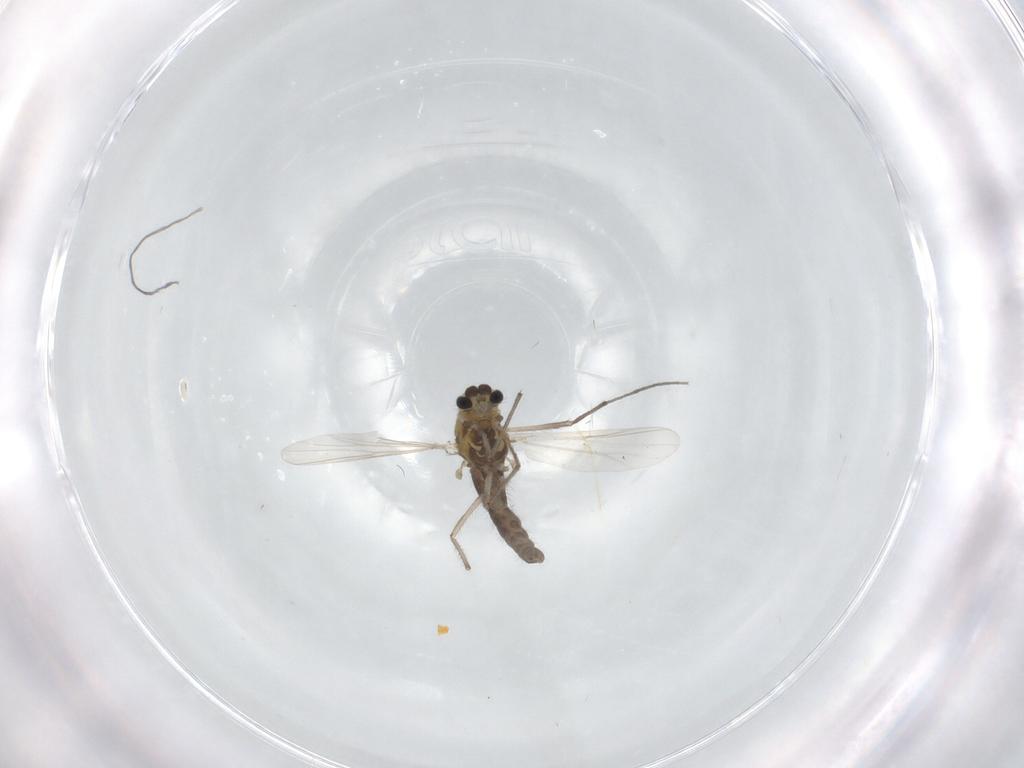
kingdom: Animalia
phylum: Arthropoda
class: Insecta
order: Diptera
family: Chironomidae
